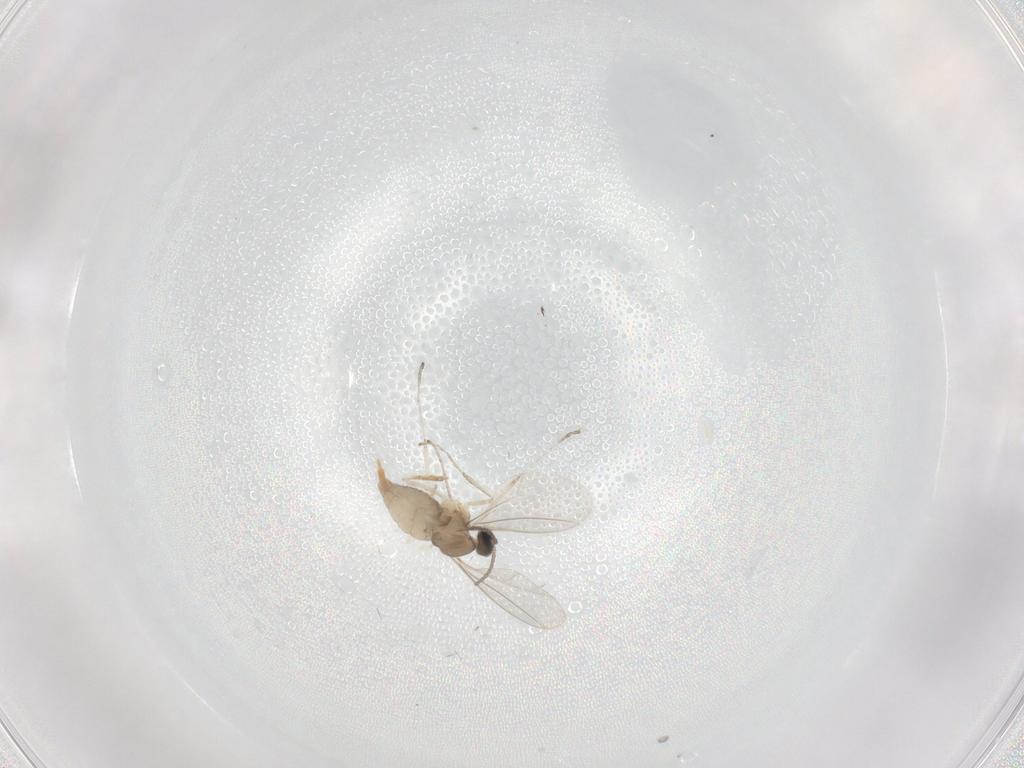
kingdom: Animalia
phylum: Arthropoda
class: Insecta
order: Diptera
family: Cecidomyiidae
